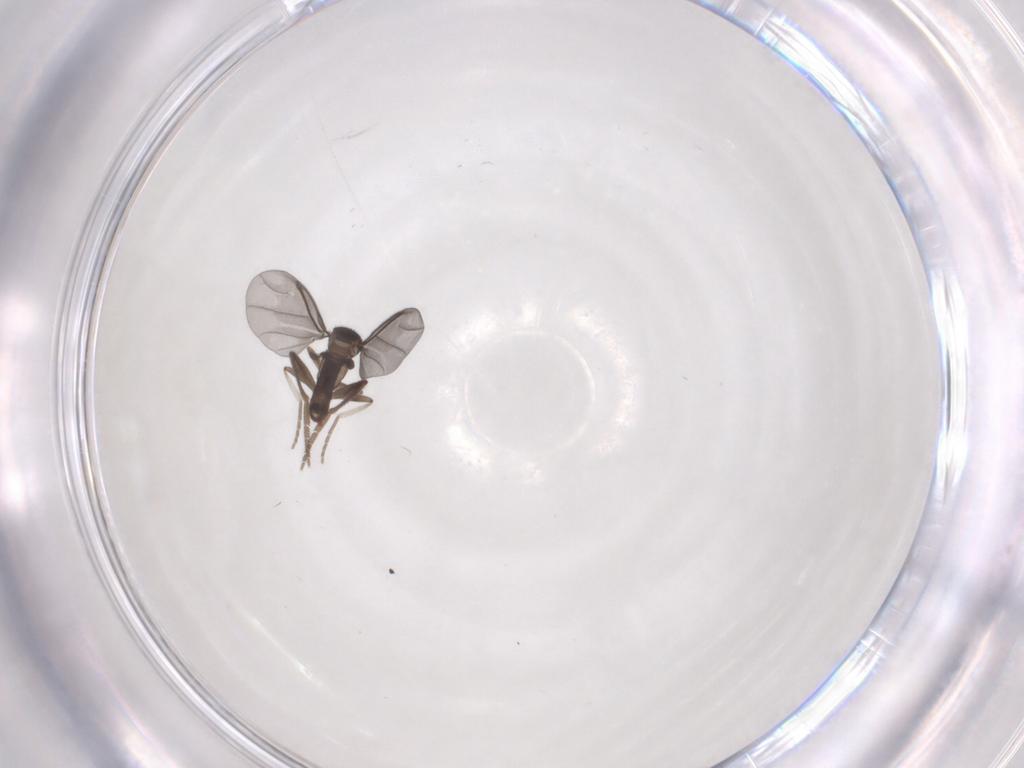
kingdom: Animalia
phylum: Arthropoda
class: Insecta
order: Diptera
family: Phoridae
